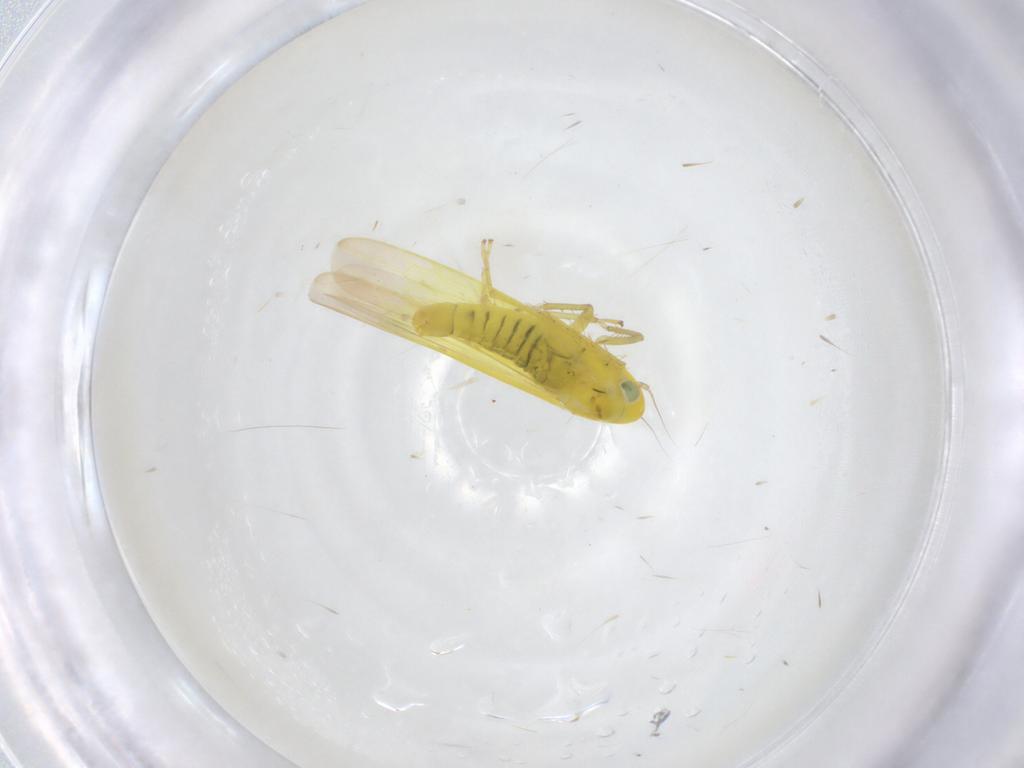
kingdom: Animalia
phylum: Arthropoda
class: Insecta
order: Hemiptera
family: Cicadellidae
